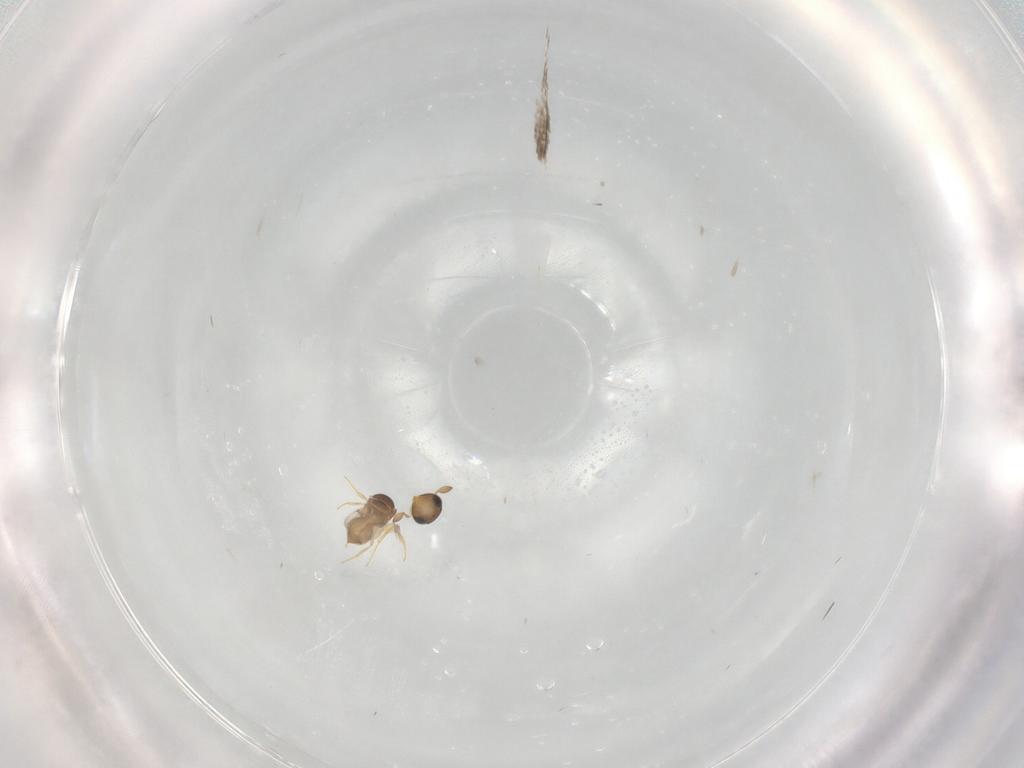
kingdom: Animalia
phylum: Arthropoda
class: Insecta
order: Hymenoptera
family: Scelionidae
